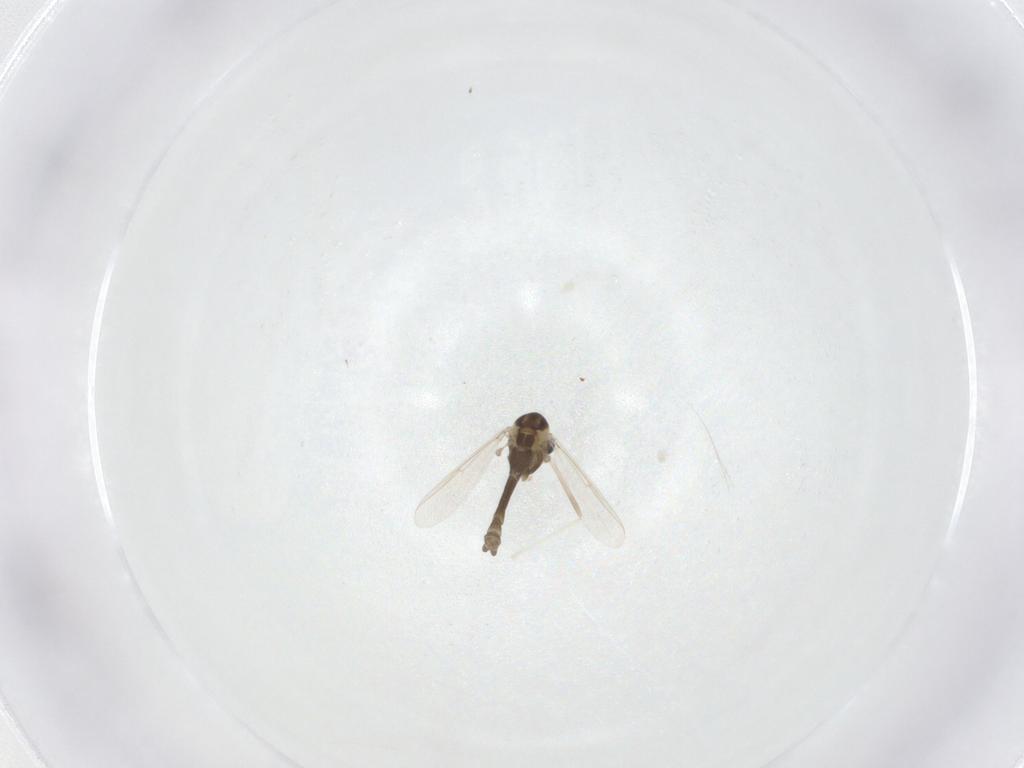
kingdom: Animalia
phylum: Arthropoda
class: Insecta
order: Diptera
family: Chironomidae
